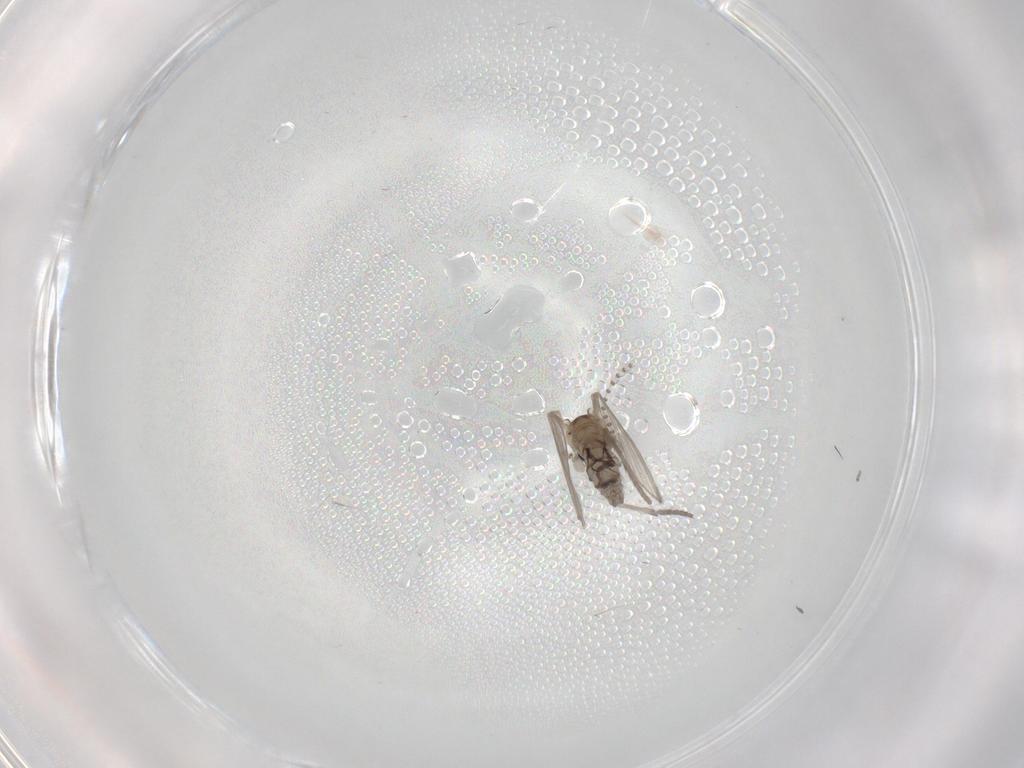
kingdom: Animalia
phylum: Arthropoda
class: Insecta
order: Diptera
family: Psychodidae
